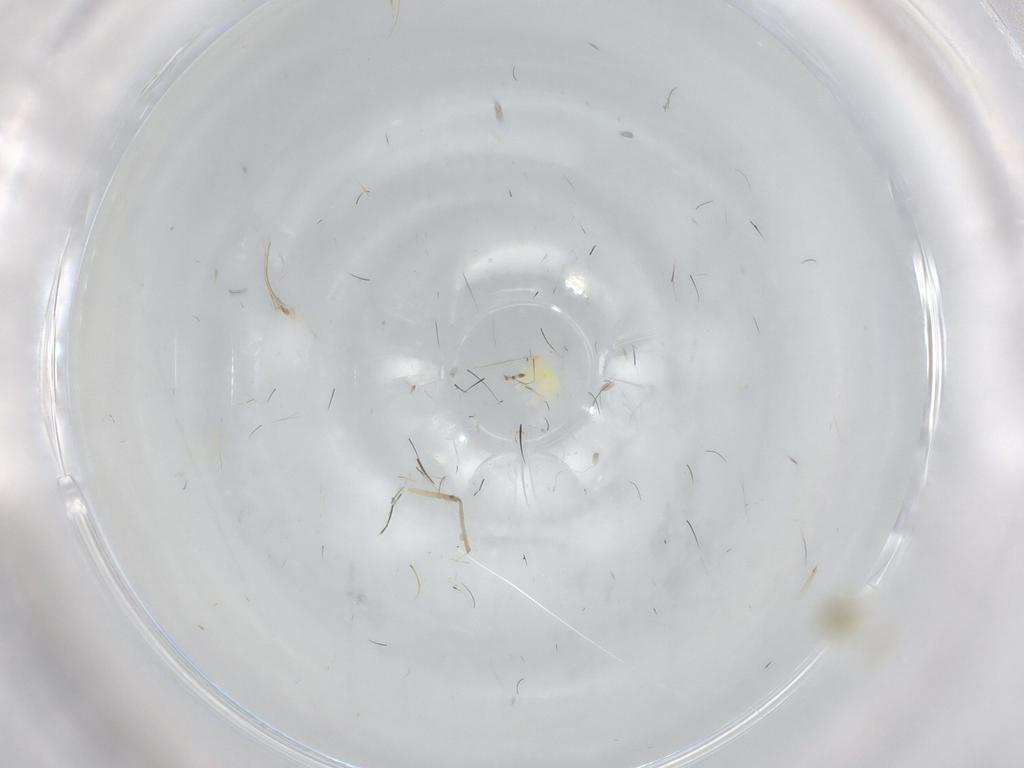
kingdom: Animalia
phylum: Arthropoda
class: Insecta
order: Hemiptera
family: Aleyrodidae
